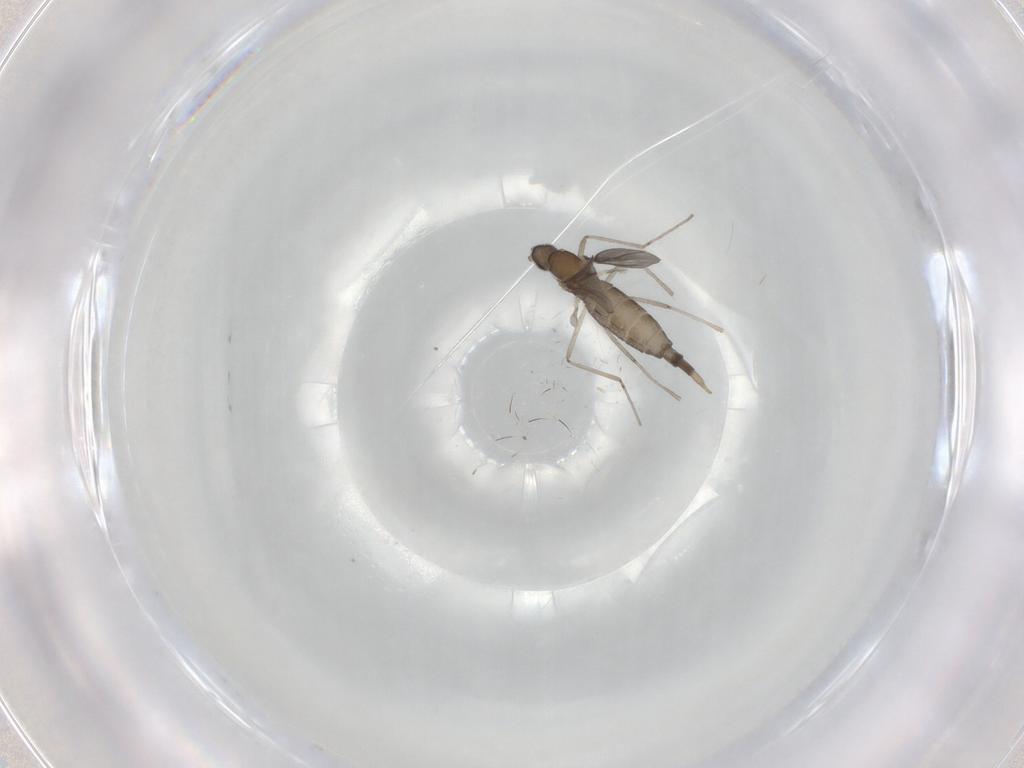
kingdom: Animalia
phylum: Arthropoda
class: Insecta
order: Diptera
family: Cecidomyiidae
